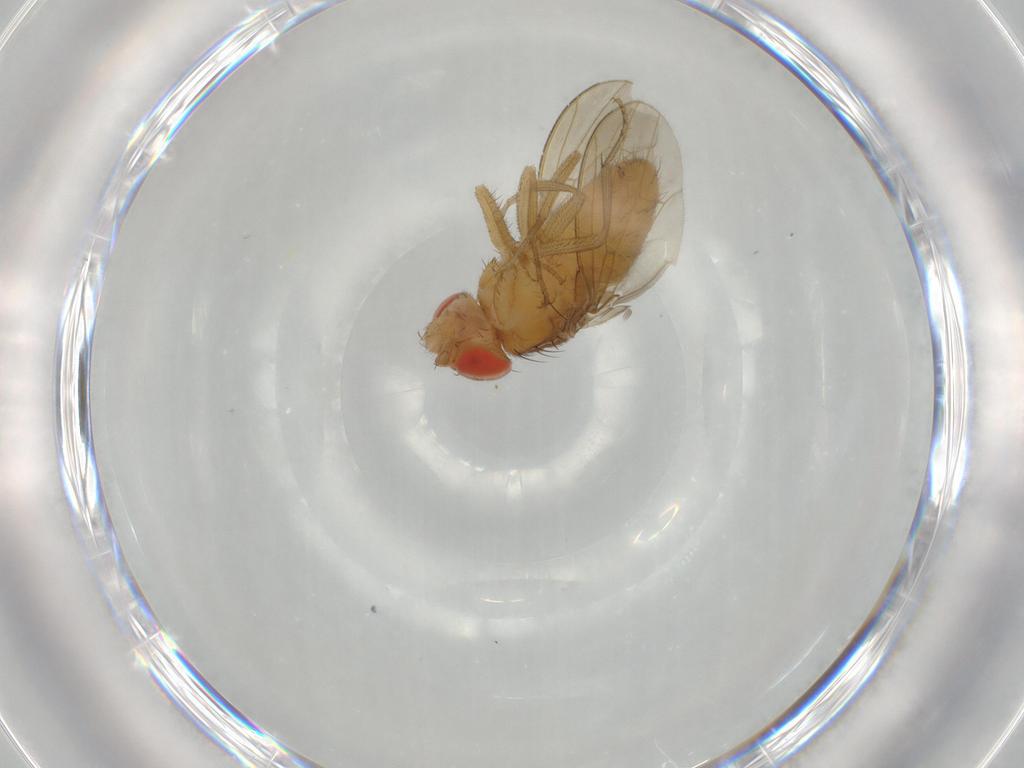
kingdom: Animalia
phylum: Arthropoda
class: Insecta
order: Diptera
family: Drosophilidae
